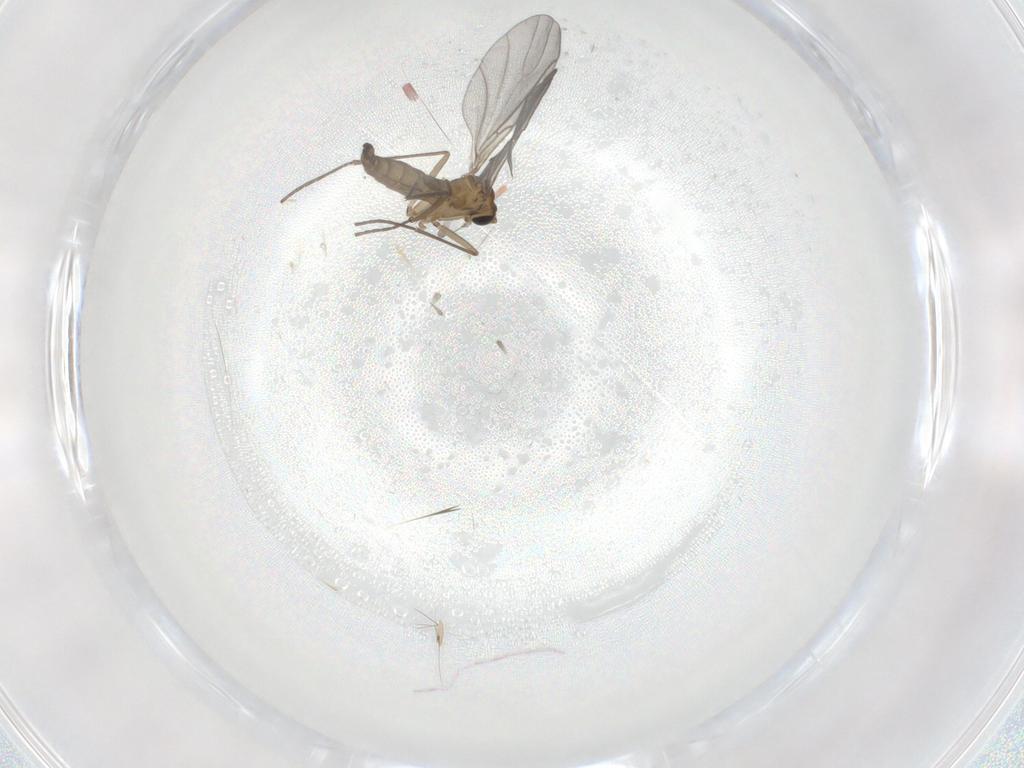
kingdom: Animalia
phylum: Arthropoda
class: Insecta
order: Diptera
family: Sciaridae
